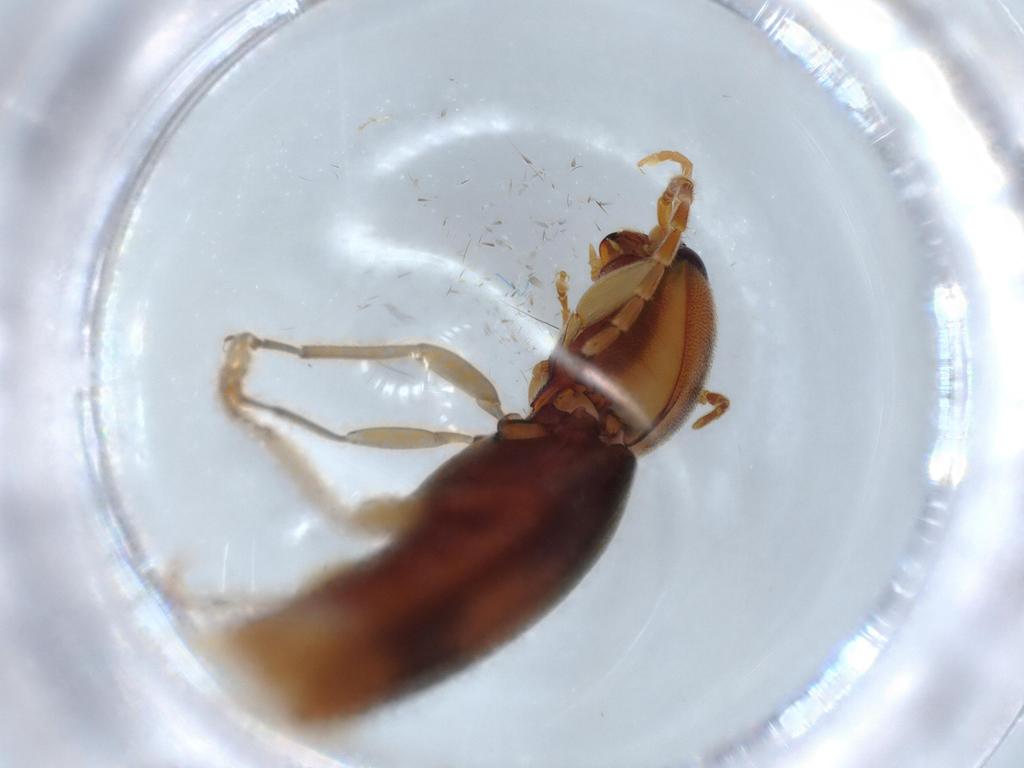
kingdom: Animalia
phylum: Arthropoda
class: Insecta
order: Coleoptera
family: Elateridae
